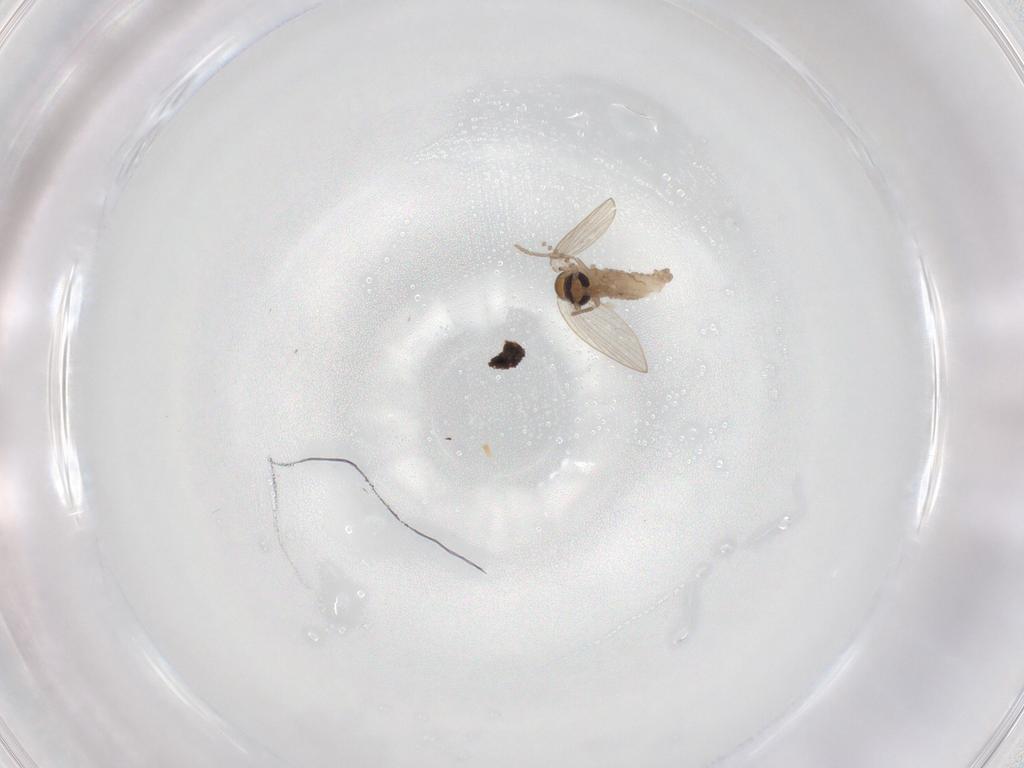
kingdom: Animalia
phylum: Arthropoda
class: Insecta
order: Diptera
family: Psychodidae
